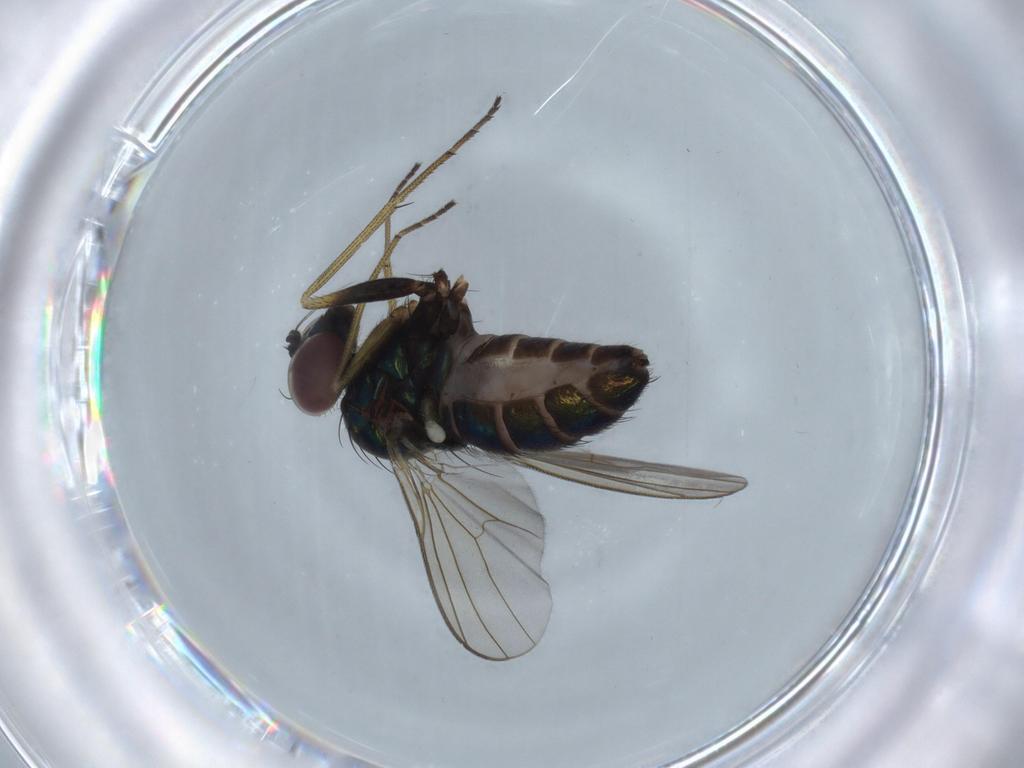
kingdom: Animalia
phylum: Arthropoda
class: Insecta
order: Diptera
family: Dolichopodidae
